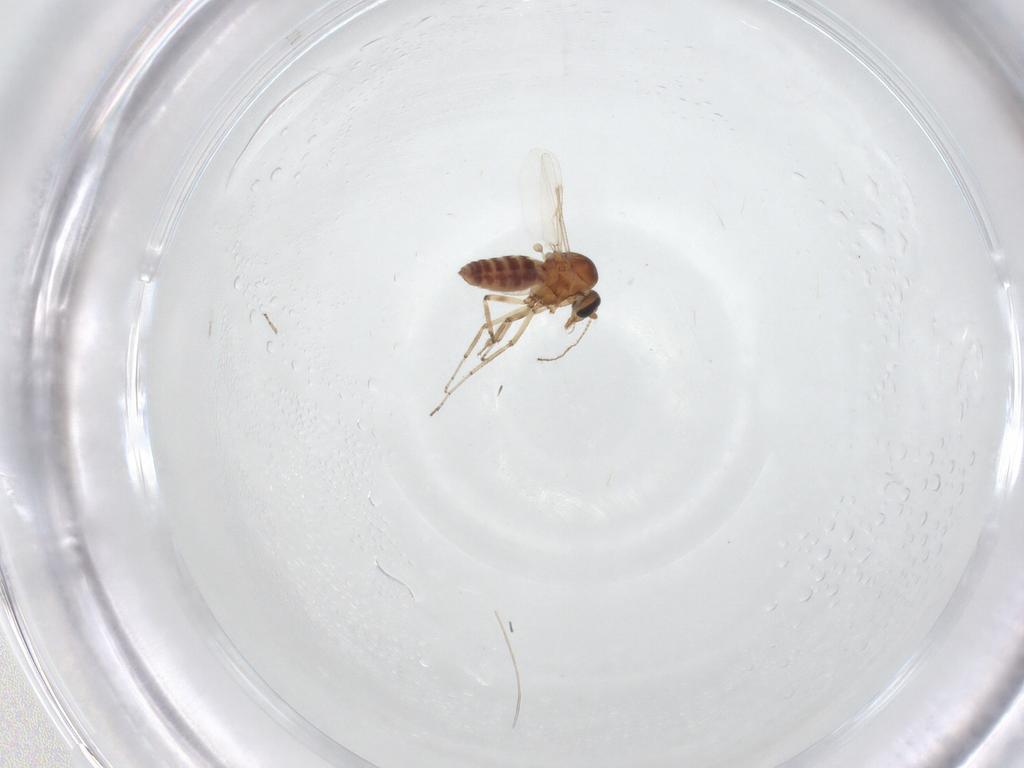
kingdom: Animalia
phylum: Arthropoda
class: Insecta
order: Diptera
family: Ceratopogonidae
